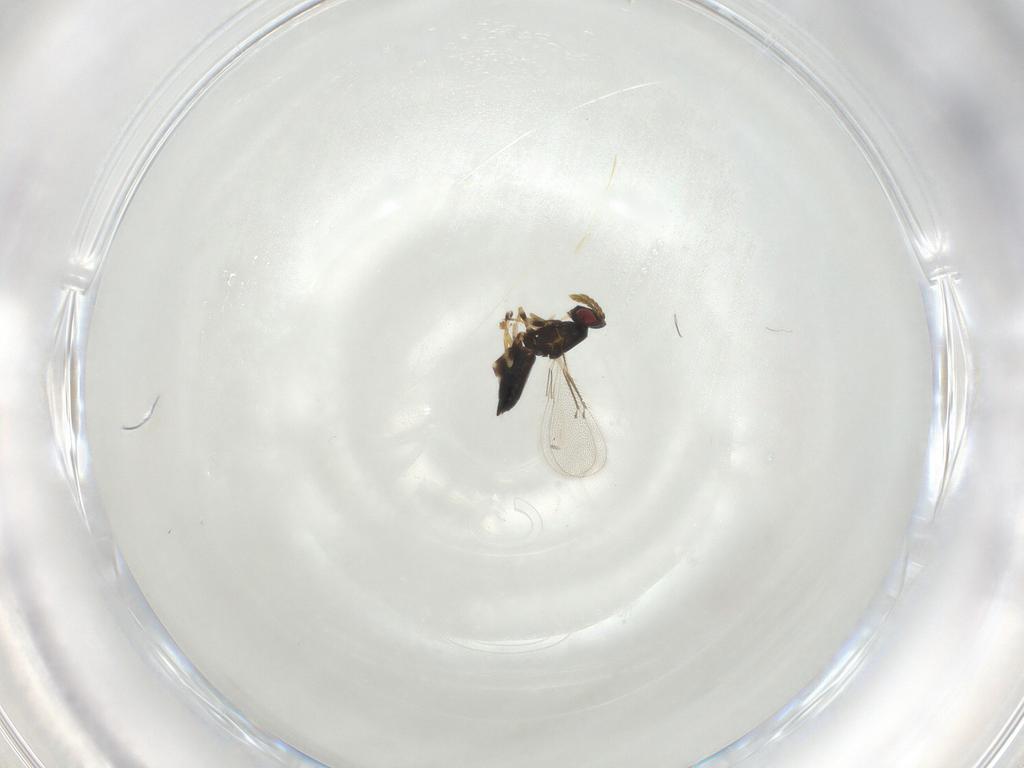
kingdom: Animalia
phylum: Arthropoda
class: Insecta
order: Hymenoptera
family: Eulophidae
